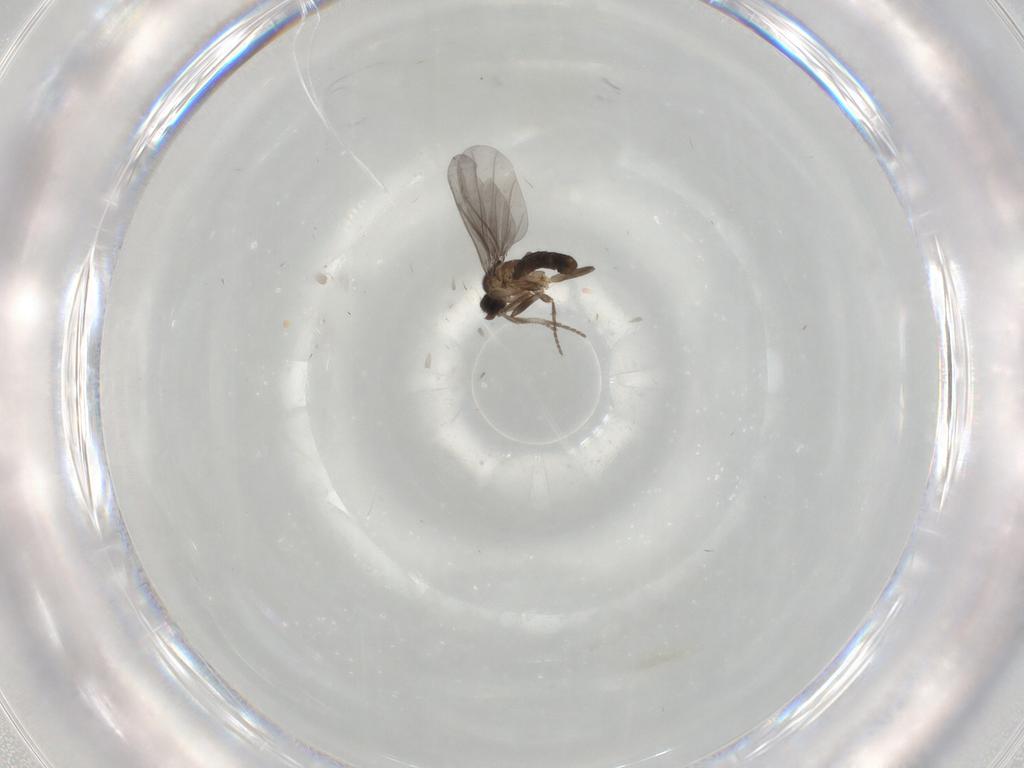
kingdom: Animalia
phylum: Arthropoda
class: Insecta
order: Diptera
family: Phoridae
